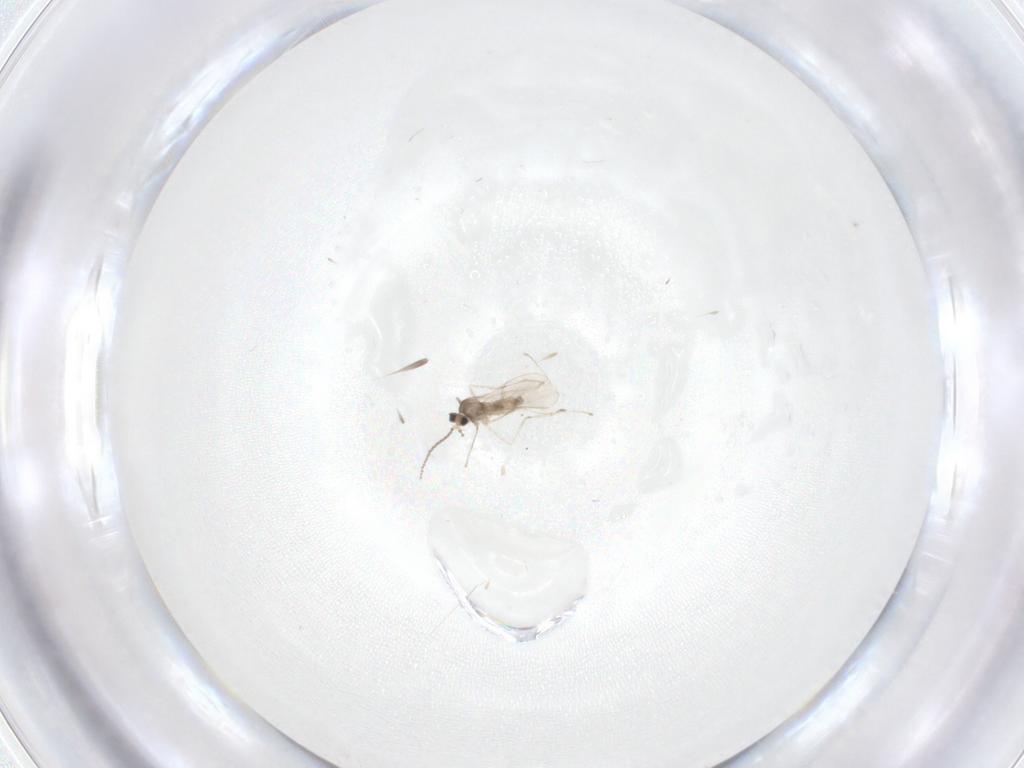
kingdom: Animalia
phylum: Arthropoda
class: Insecta
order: Diptera
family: Cecidomyiidae
